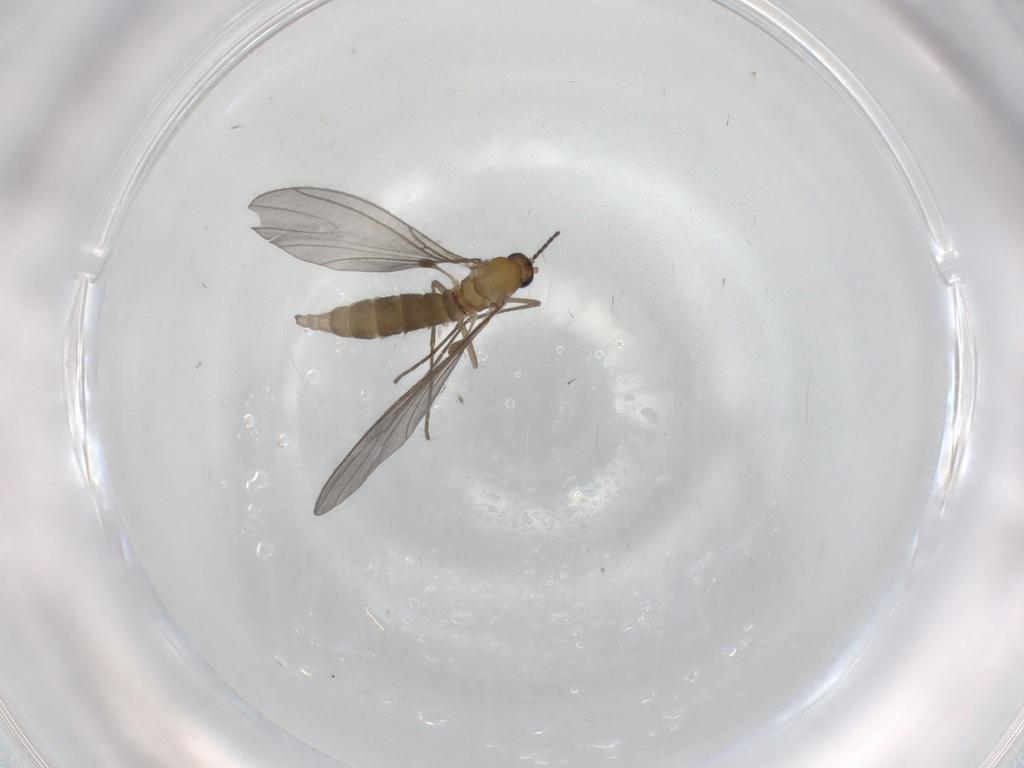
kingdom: Animalia
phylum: Arthropoda
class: Insecta
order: Diptera
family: Sciaridae
